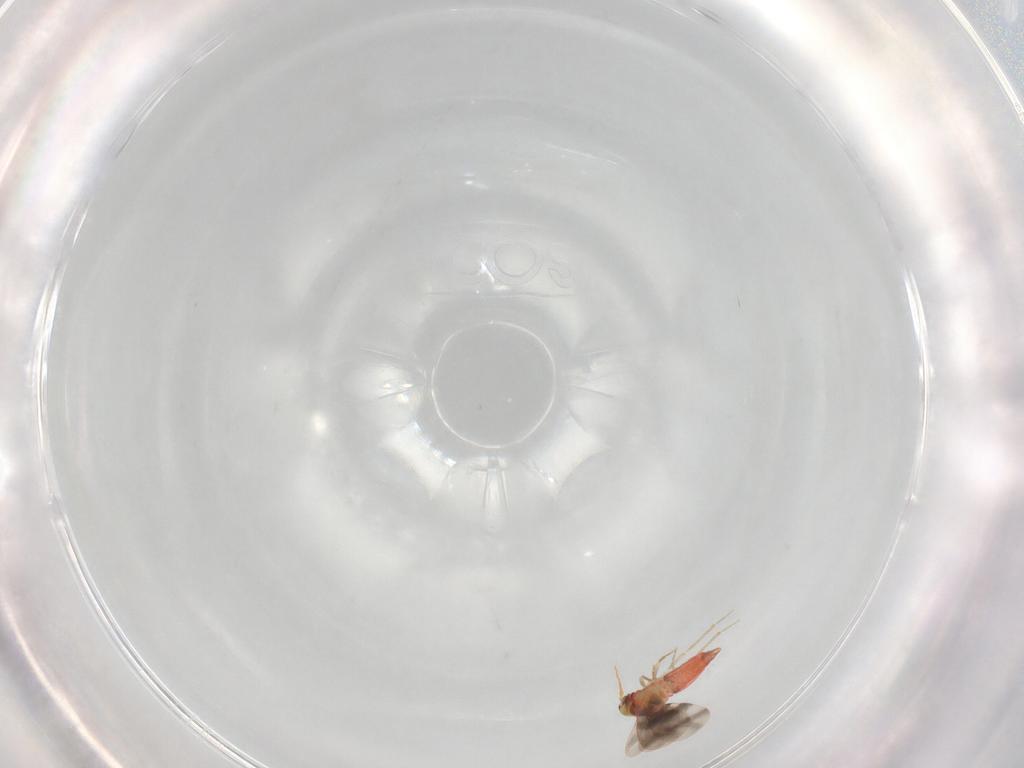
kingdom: Animalia
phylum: Arthropoda
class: Insecta
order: Hemiptera
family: Aleyrodidae
